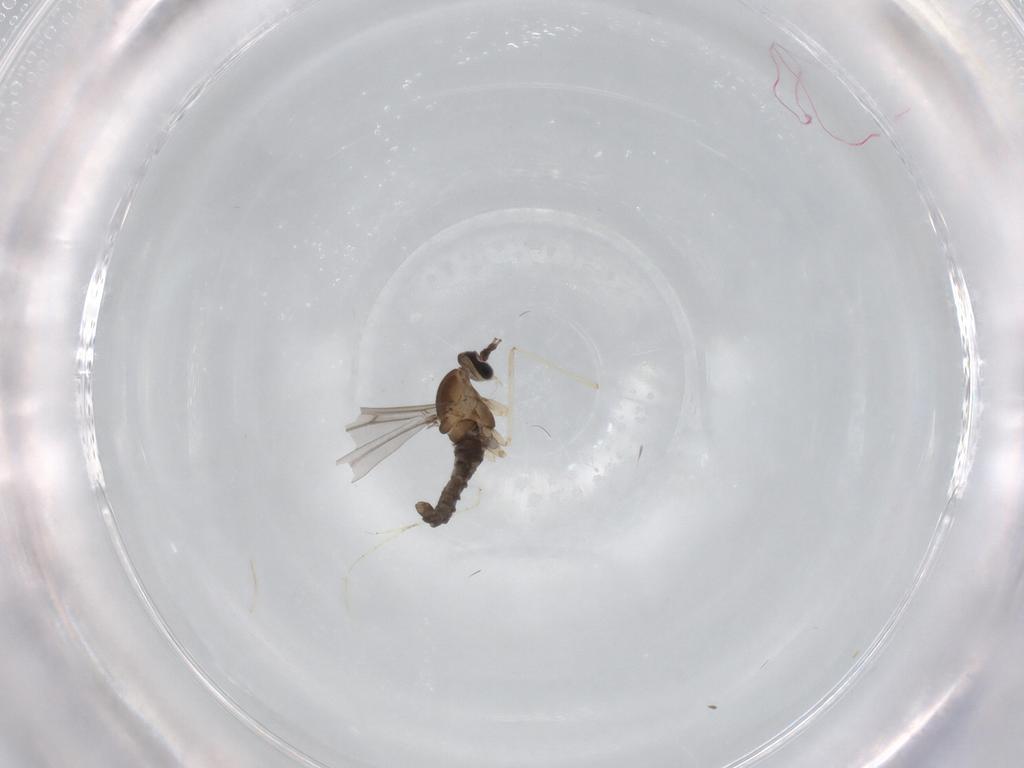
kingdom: Animalia
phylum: Arthropoda
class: Insecta
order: Diptera
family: Cecidomyiidae
